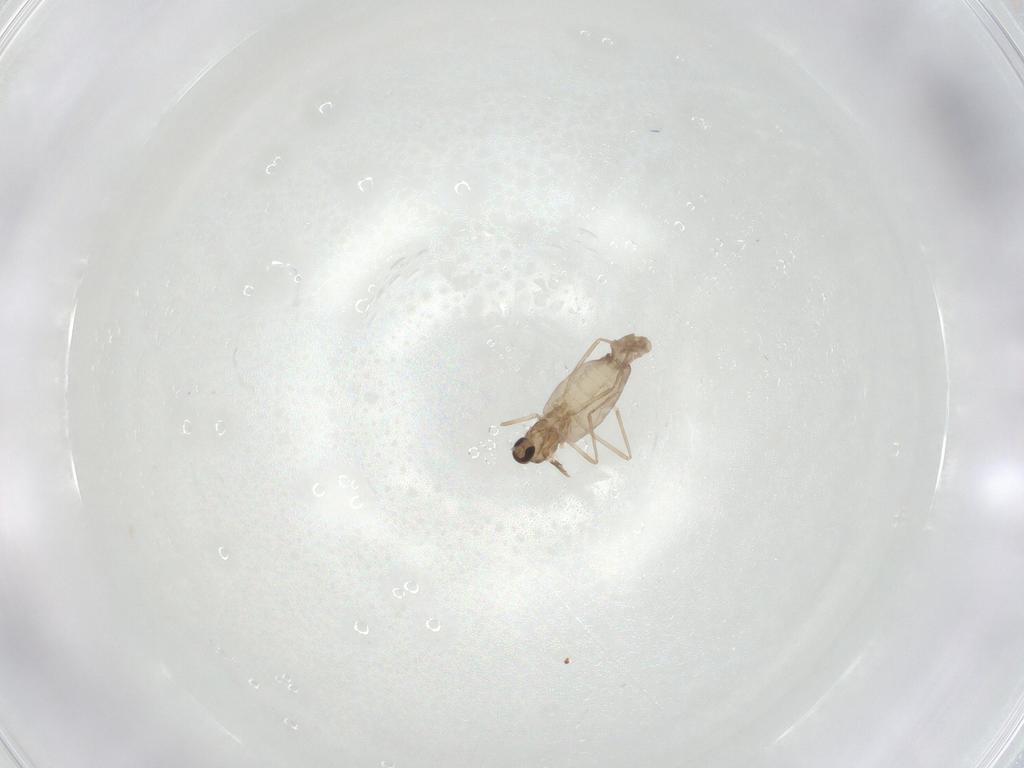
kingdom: Animalia
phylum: Arthropoda
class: Insecta
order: Diptera
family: Cecidomyiidae
